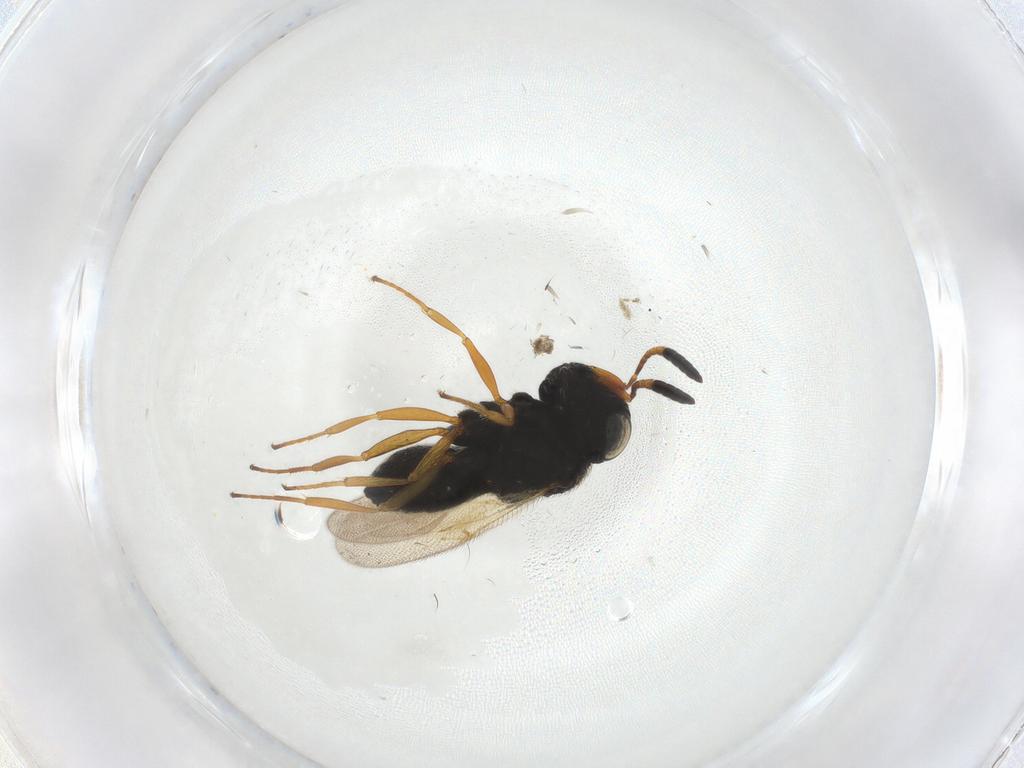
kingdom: Animalia
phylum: Arthropoda
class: Insecta
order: Hymenoptera
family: Scelionidae
